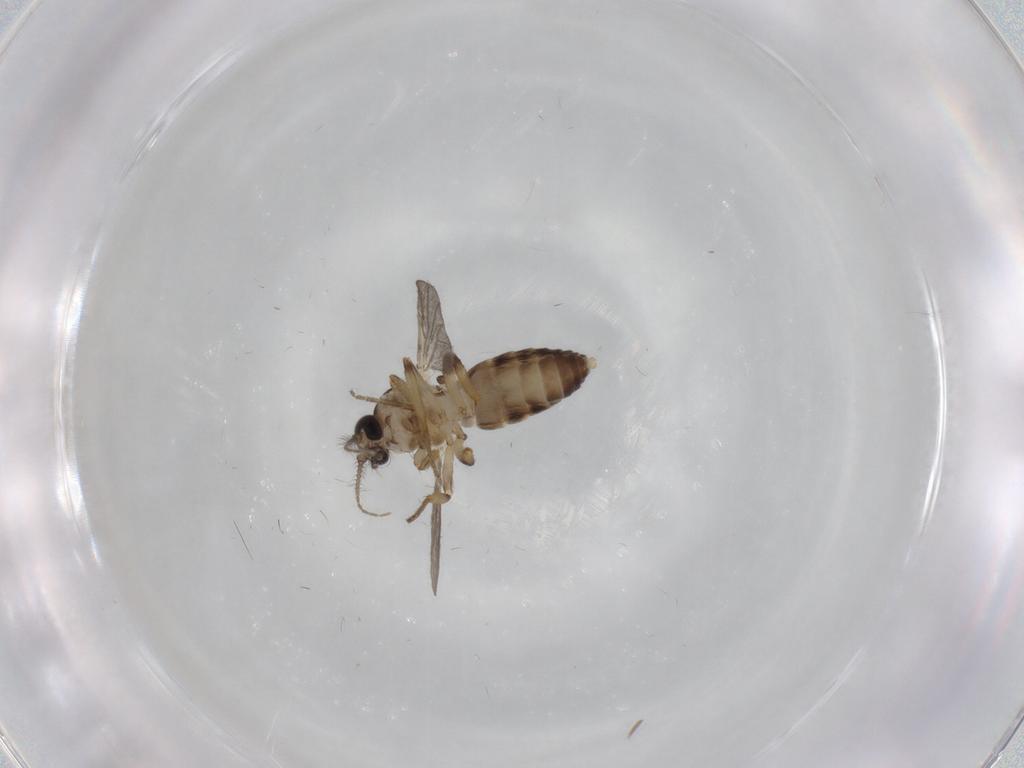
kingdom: Animalia
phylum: Arthropoda
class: Insecta
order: Diptera
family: Ceratopogonidae
